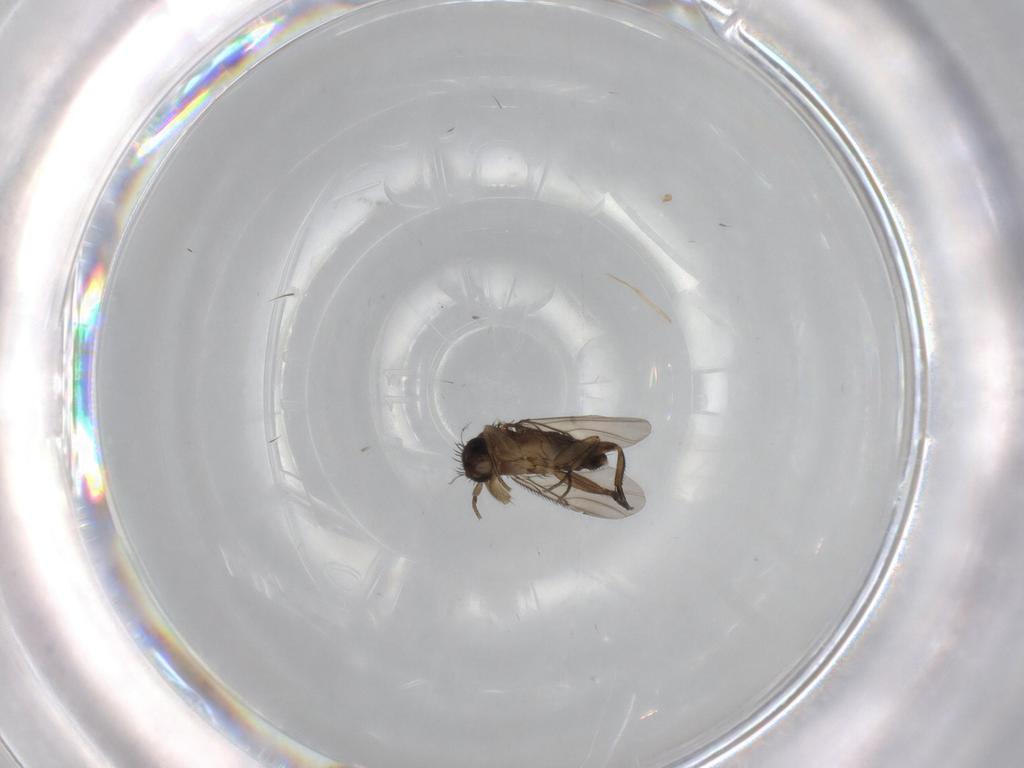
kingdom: Animalia
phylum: Arthropoda
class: Insecta
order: Diptera
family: Phoridae
